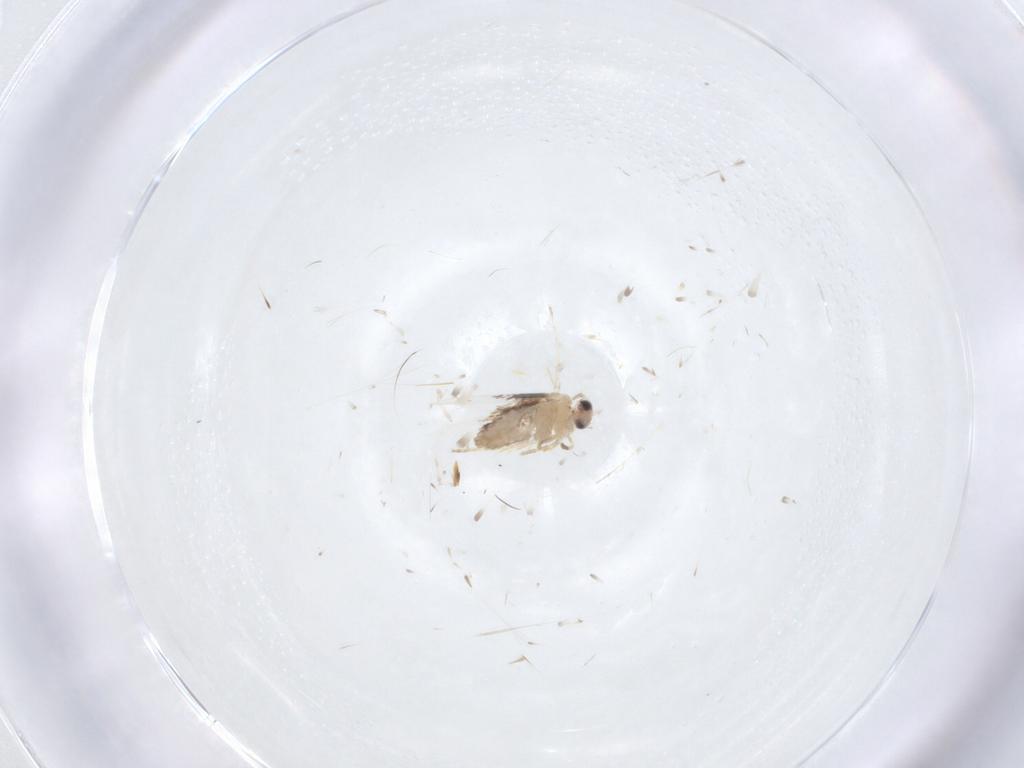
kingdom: Animalia
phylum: Arthropoda
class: Insecta
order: Lepidoptera
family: Nepticulidae
